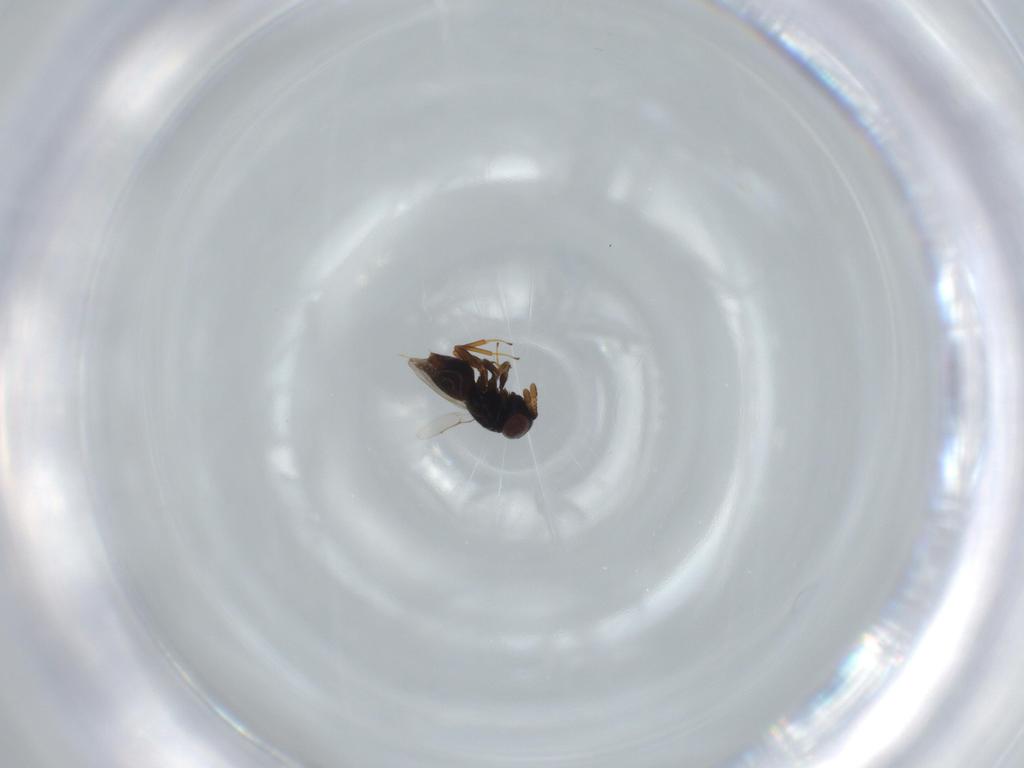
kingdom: Animalia
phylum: Arthropoda
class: Insecta
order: Hymenoptera
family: Eunotidae
